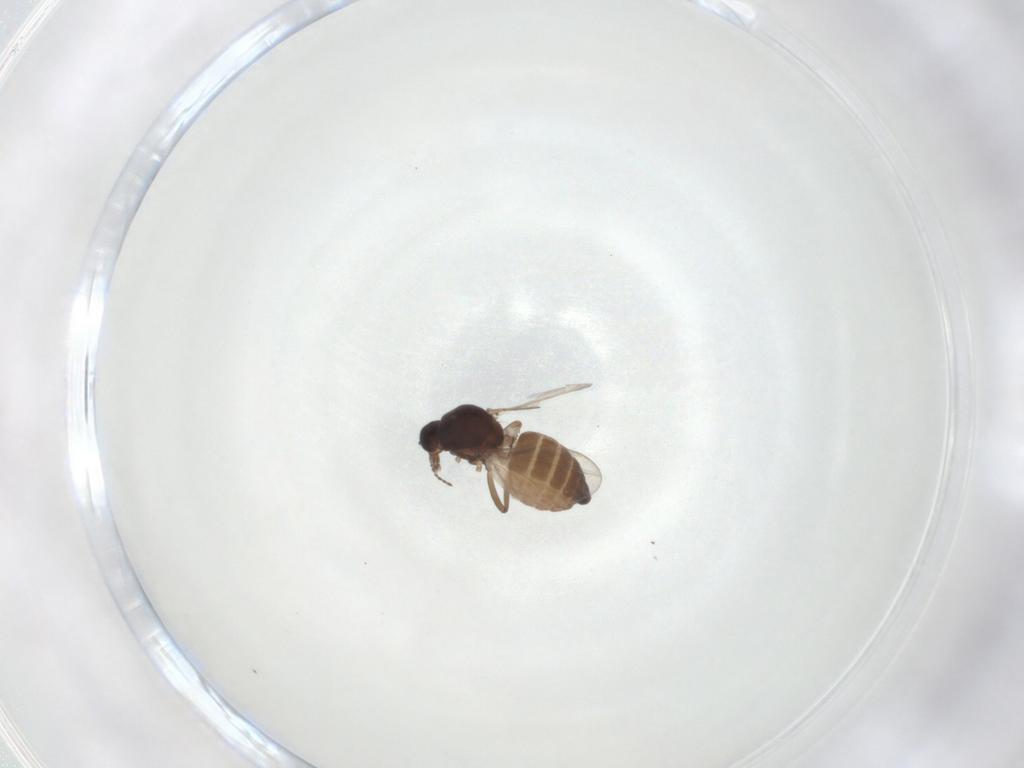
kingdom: Animalia
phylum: Arthropoda
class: Insecta
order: Diptera
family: Ceratopogonidae
